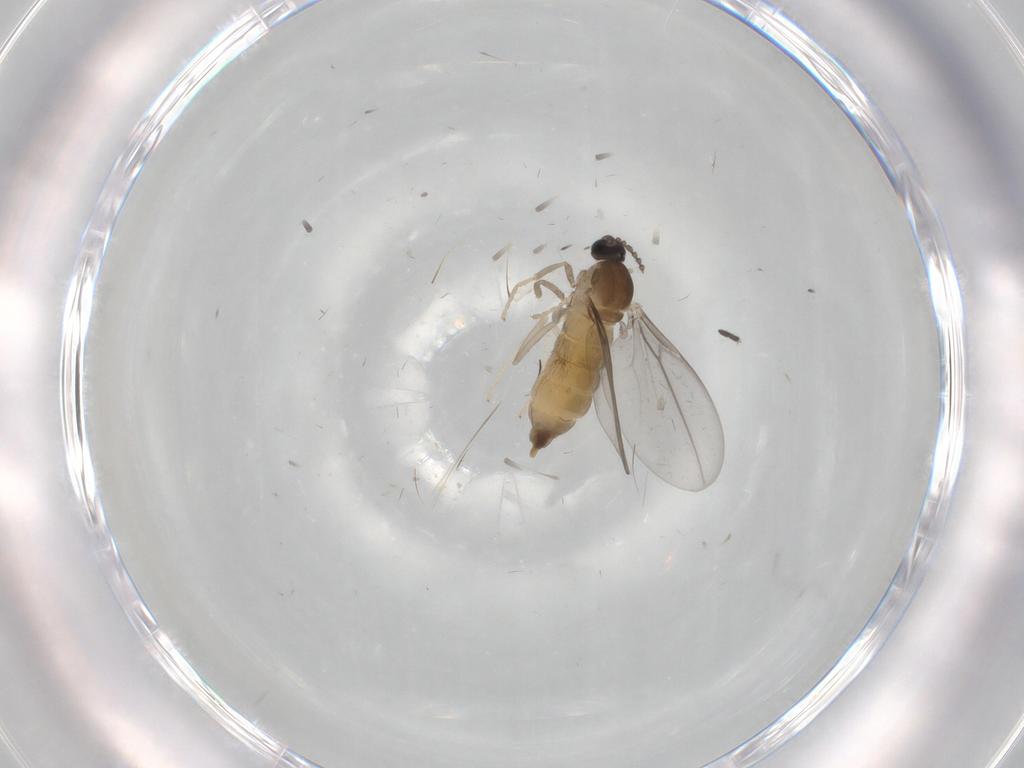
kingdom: Animalia
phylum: Arthropoda
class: Insecta
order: Diptera
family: Cecidomyiidae
